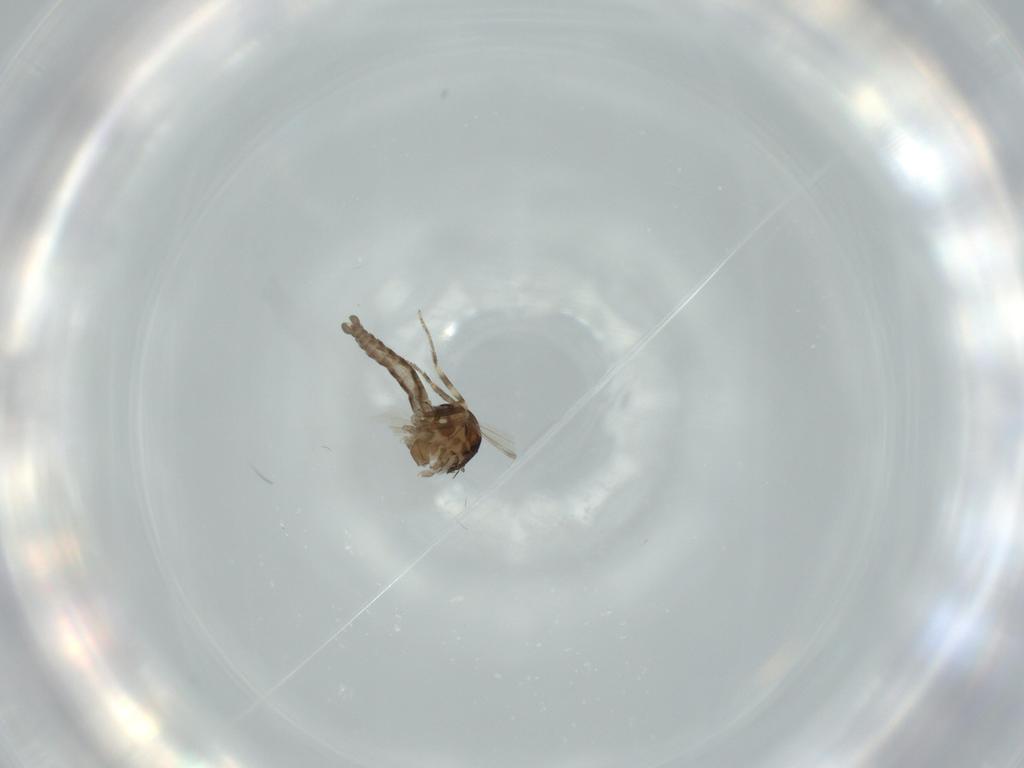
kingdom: Animalia
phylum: Arthropoda
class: Insecta
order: Diptera
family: Ceratopogonidae
